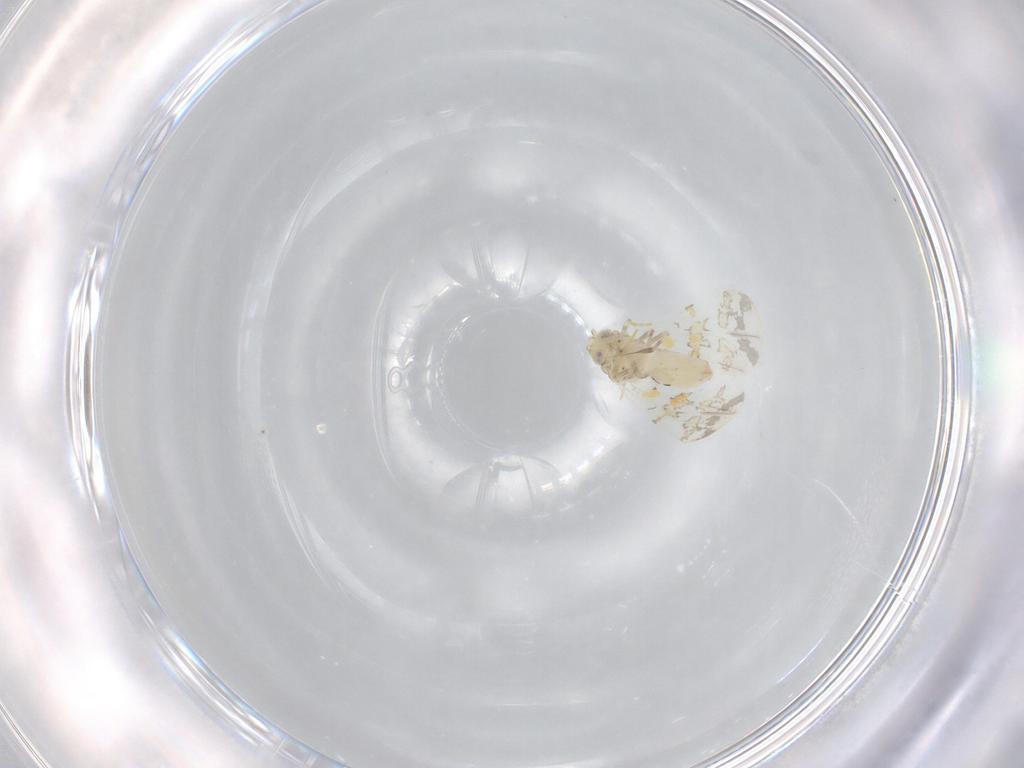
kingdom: Animalia
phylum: Arthropoda
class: Insecta
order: Hemiptera
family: Aleyrodidae
